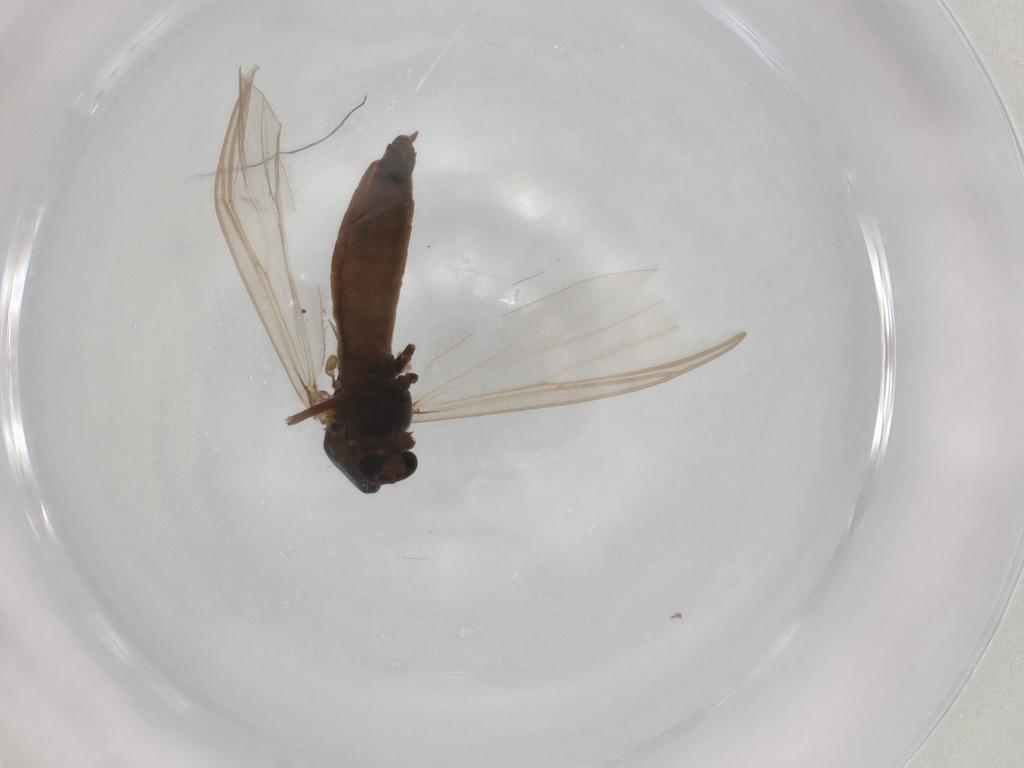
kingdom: Animalia
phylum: Arthropoda
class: Insecta
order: Diptera
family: Chironomidae
